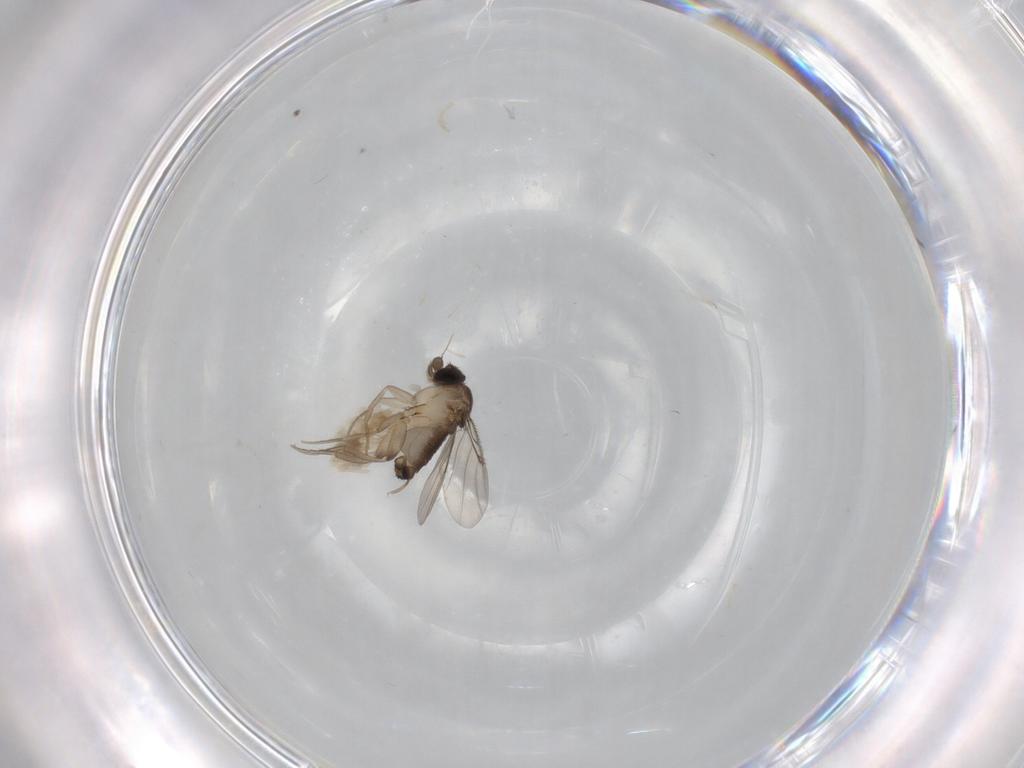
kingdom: Animalia
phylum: Arthropoda
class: Insecta
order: Diptera
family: Phoridae
